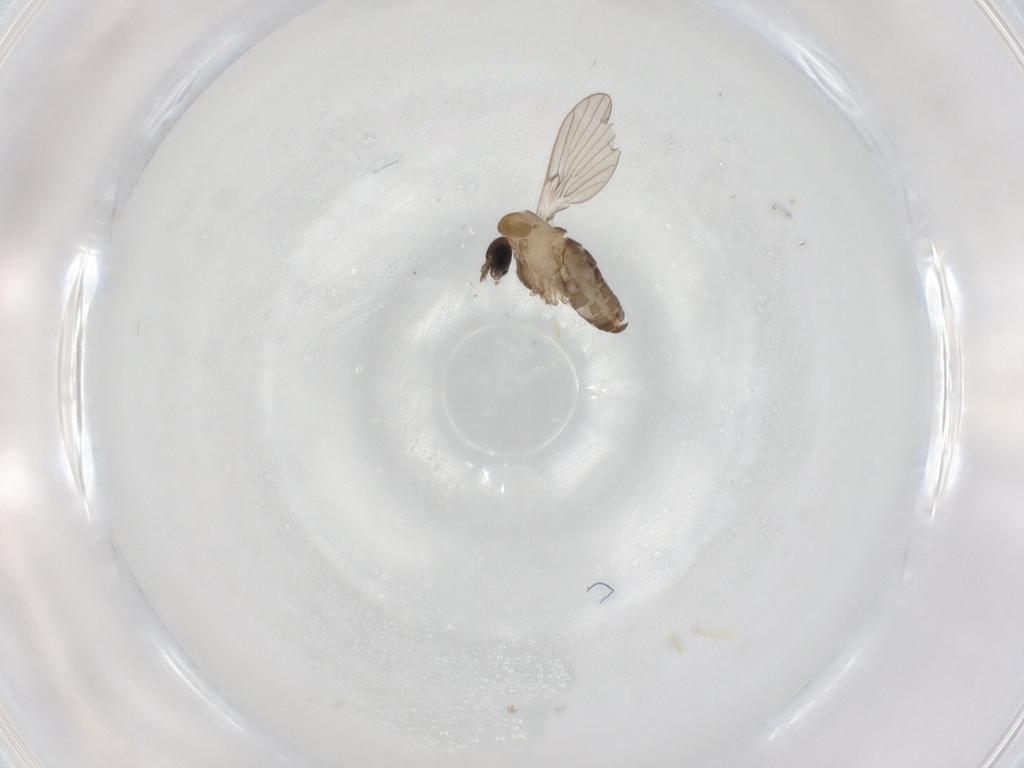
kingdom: Animalia
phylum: Arthropoda
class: Insecta
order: Diptera
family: Psychodidae
